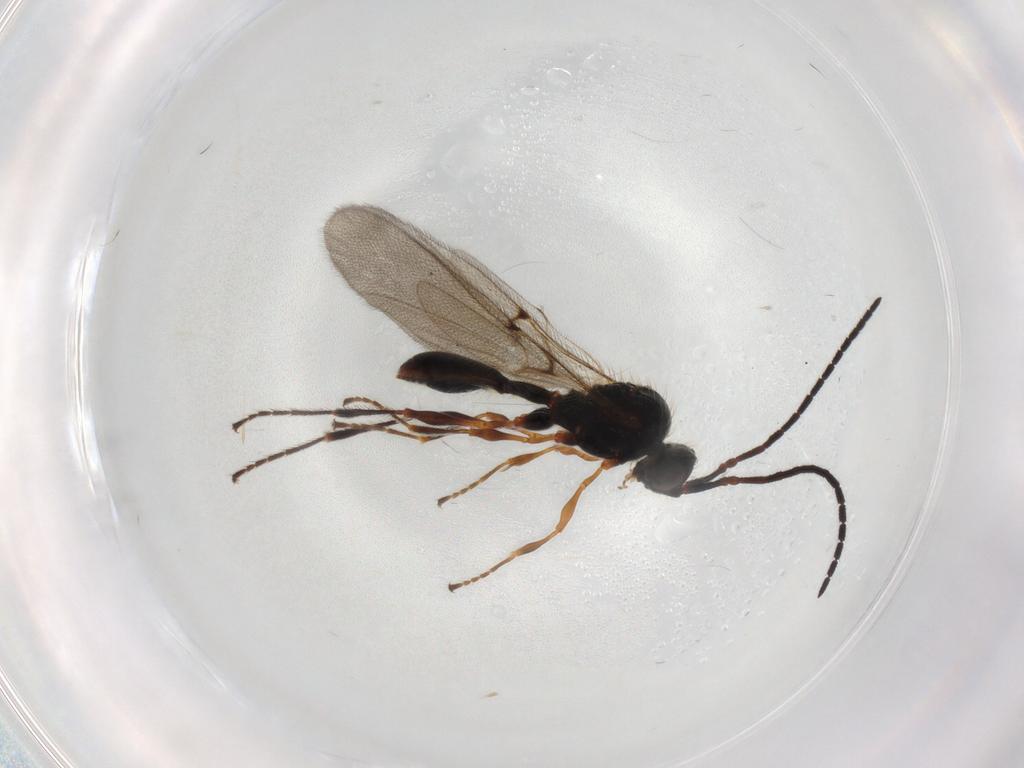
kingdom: Animalia
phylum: Arthropoda
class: Insecta
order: Hymenoptera
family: Diapriidae
